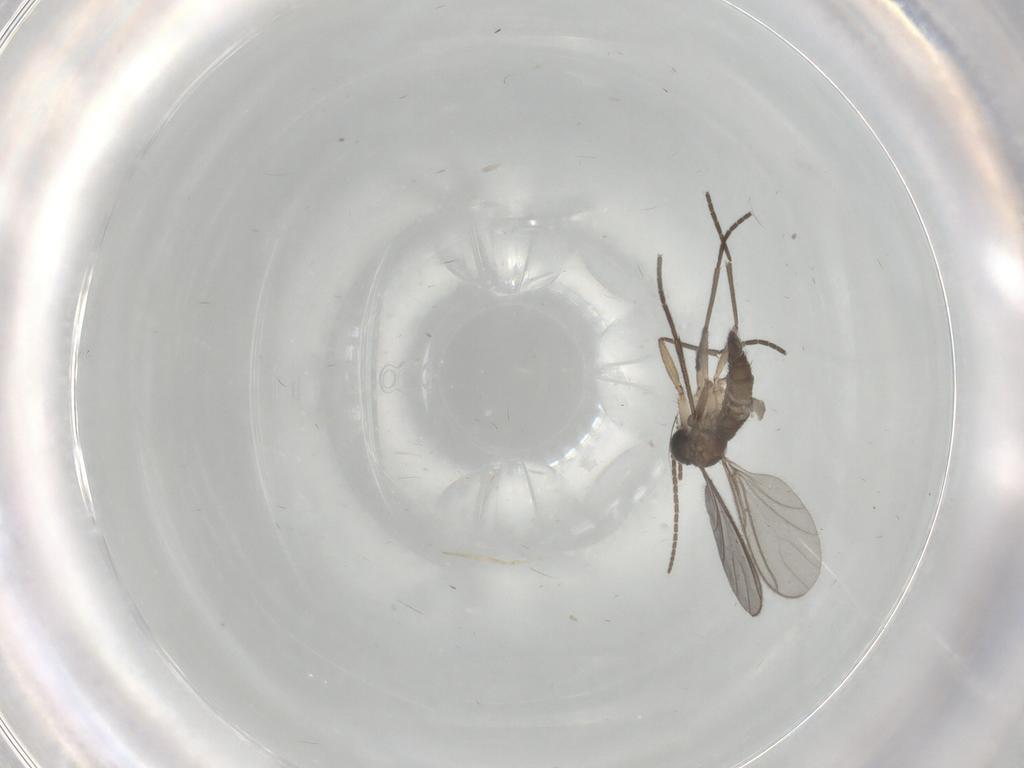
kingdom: Animalia
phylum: Arthropoda
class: Insecta
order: Diptera
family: Sciaridae
